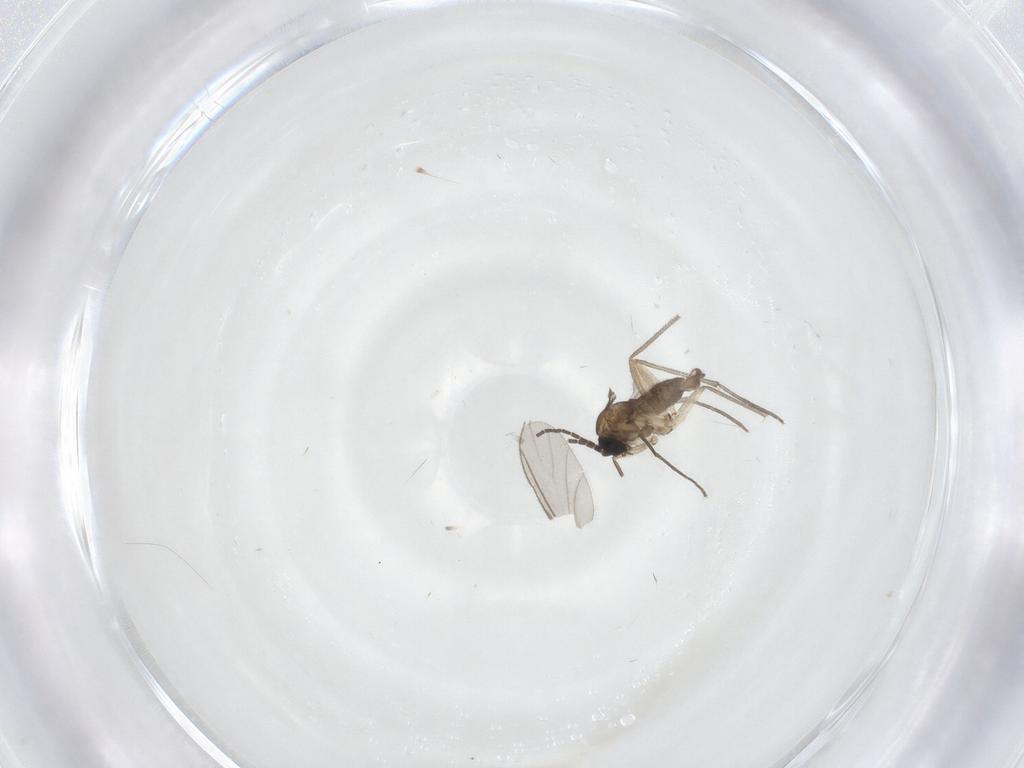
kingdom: Animalia
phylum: Arthropoda
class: Insecta
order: Diptera
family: Sciaridae
